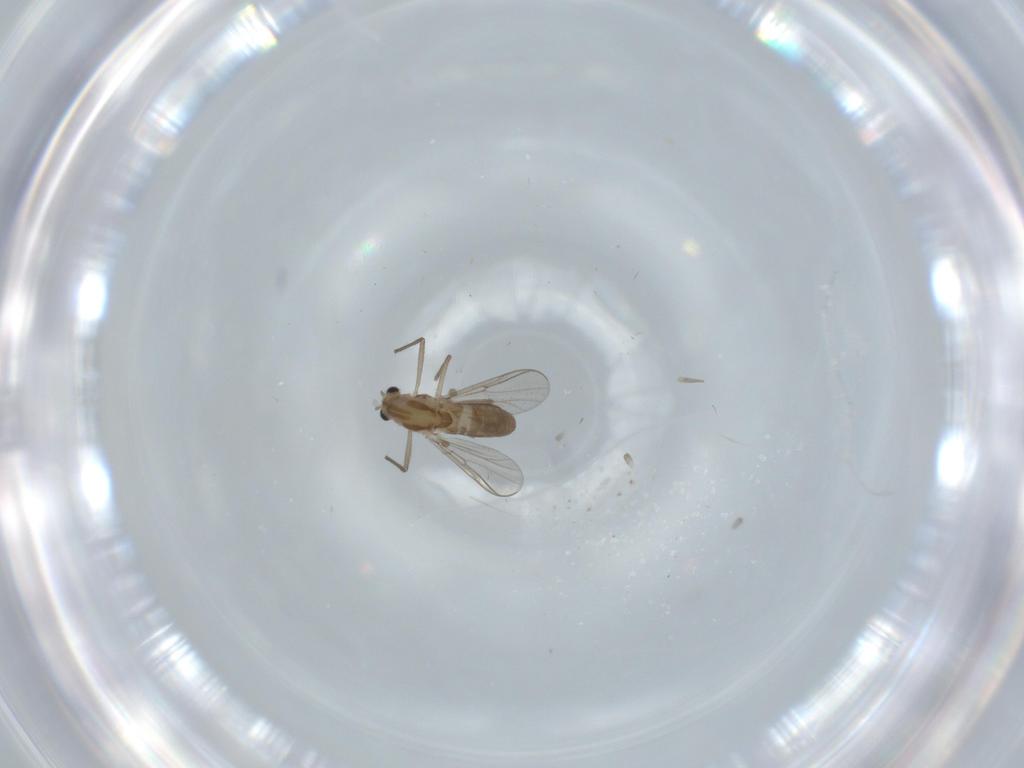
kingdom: Animalia
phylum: Arthropoda
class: Insecta
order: Diptera
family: Chironomidae
